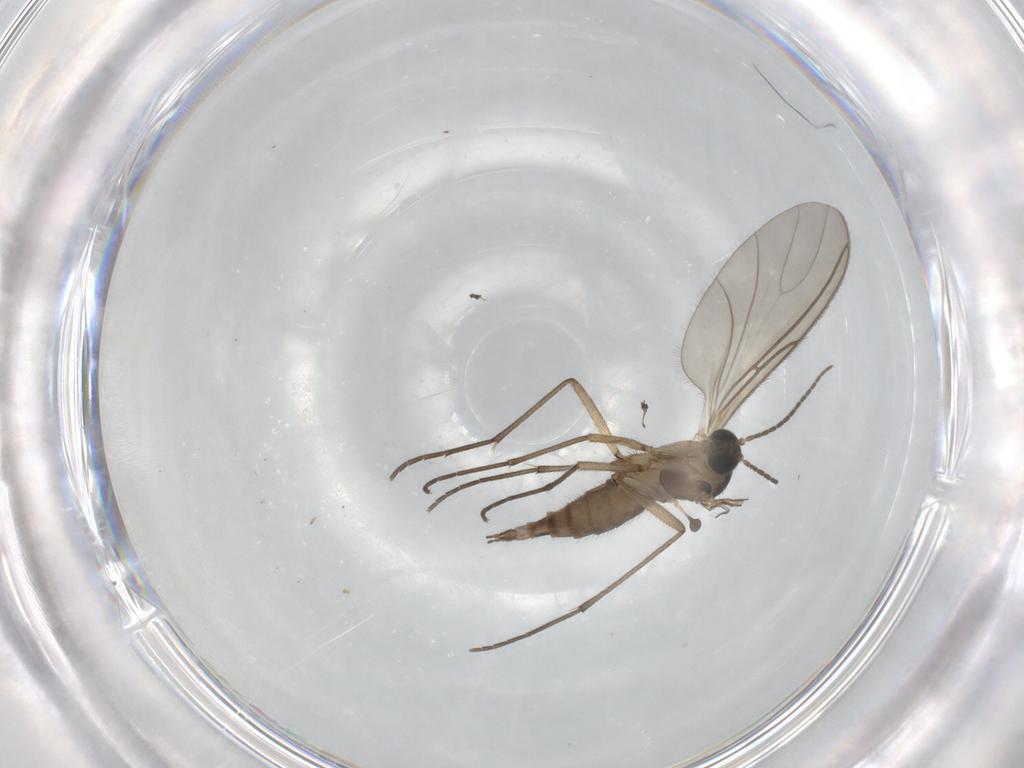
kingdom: Animalia
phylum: Arthropoda
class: Insecta
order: Diptera
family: Sciaridae
